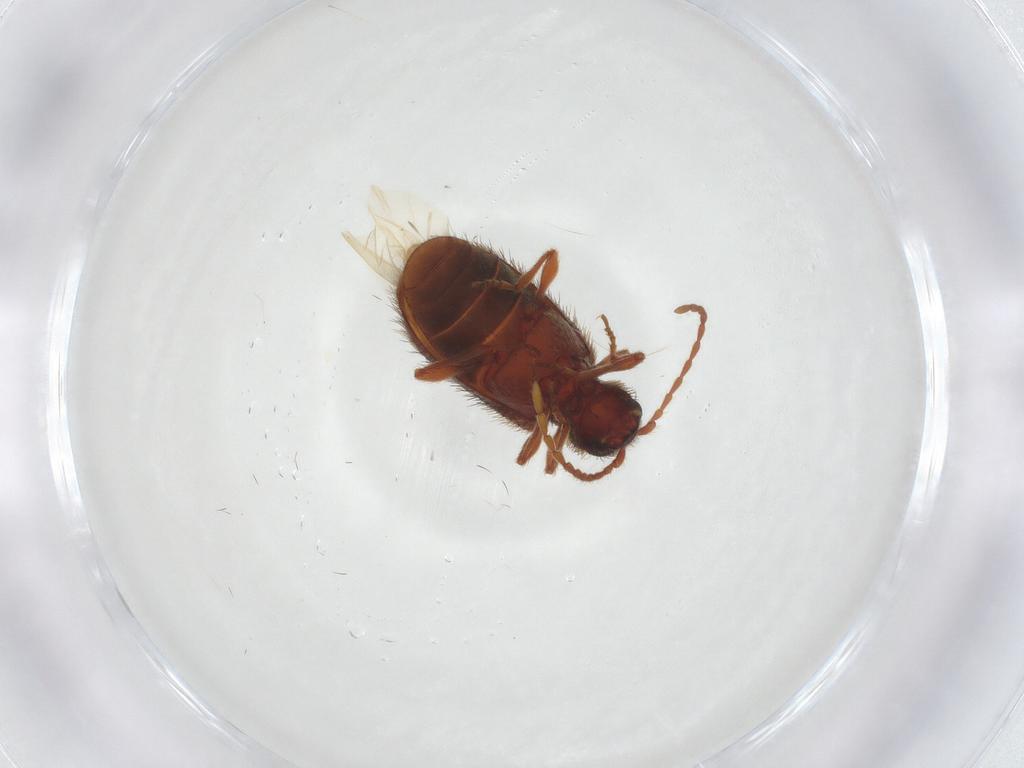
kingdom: Animalia
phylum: Arthropoda
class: Insecta
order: Coleoptera
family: Ptinidae
